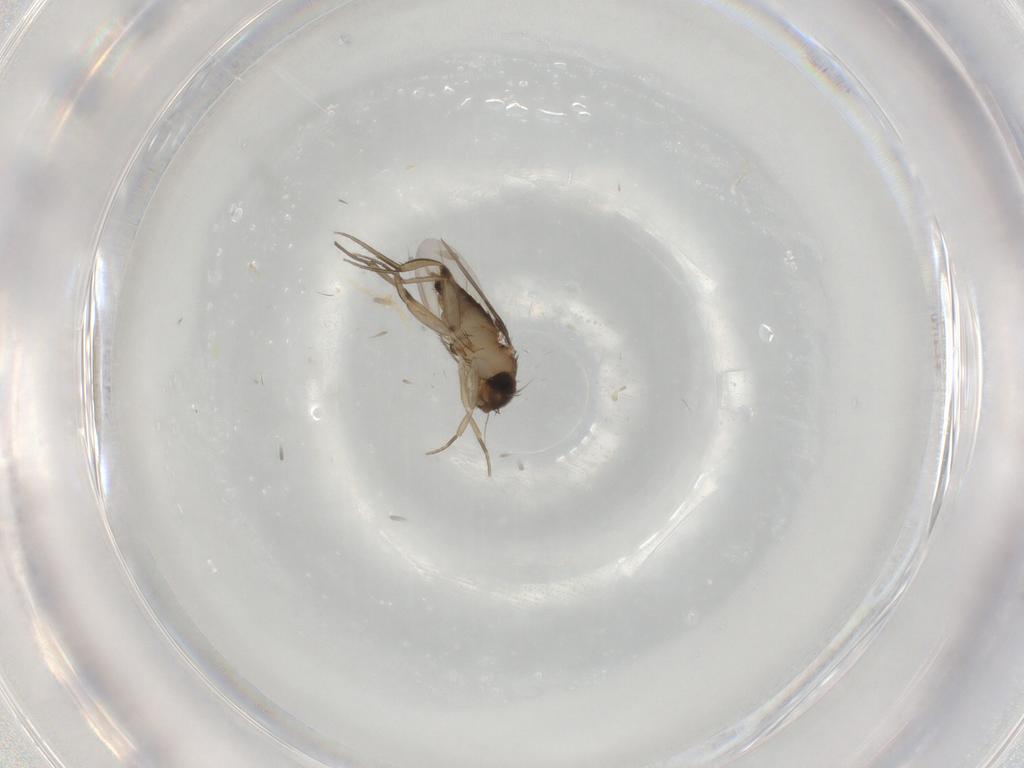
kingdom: Animalia
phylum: Arthropoda
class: Insecta
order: Diptera
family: Phoridae
